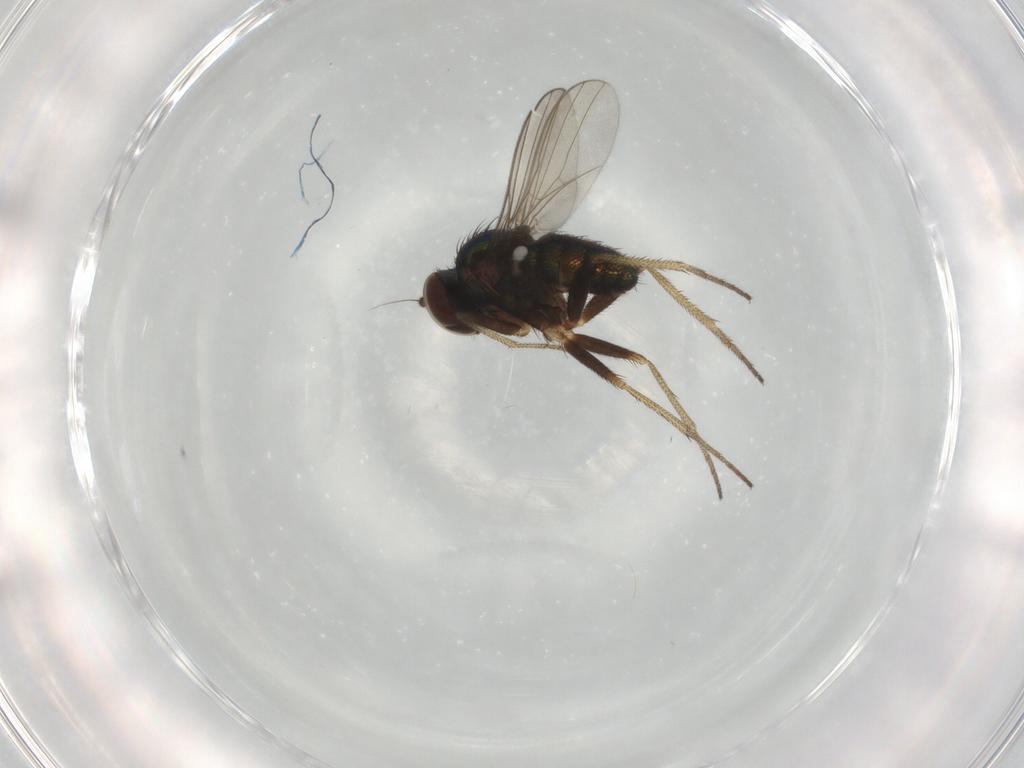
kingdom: Animalia
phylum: Arthropoda
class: Insecta
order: Diptera
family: Dolichopodidae
